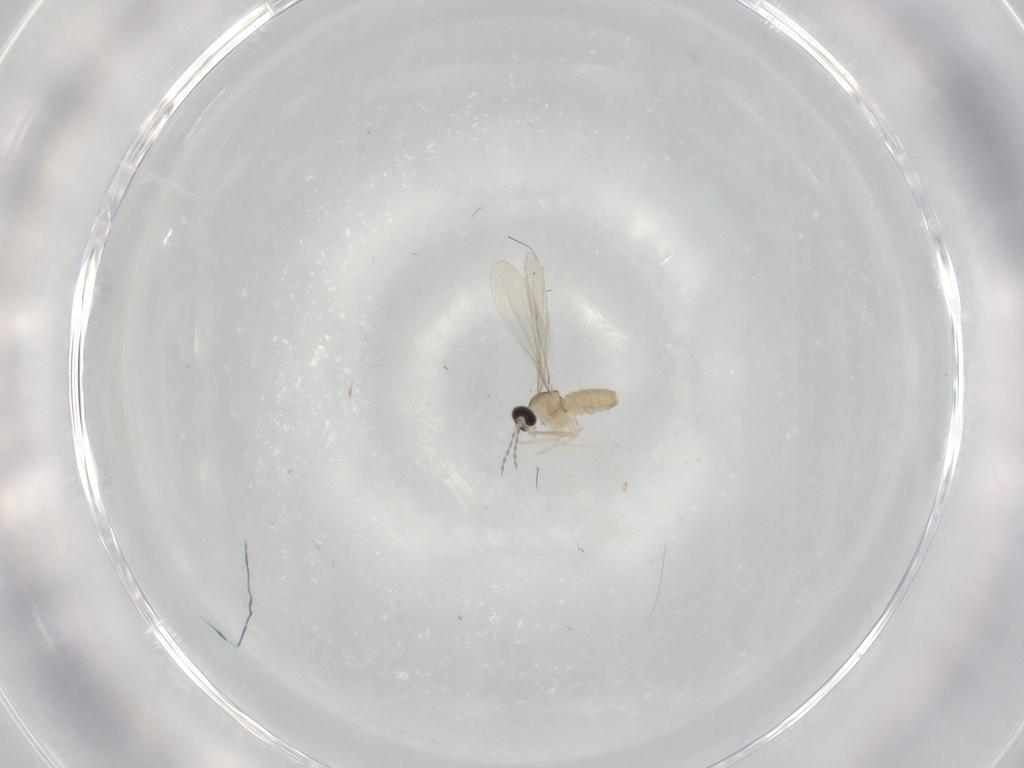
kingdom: Animalia
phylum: Arthropoda
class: Insecta
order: Diptera
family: Cecidomyiidae
